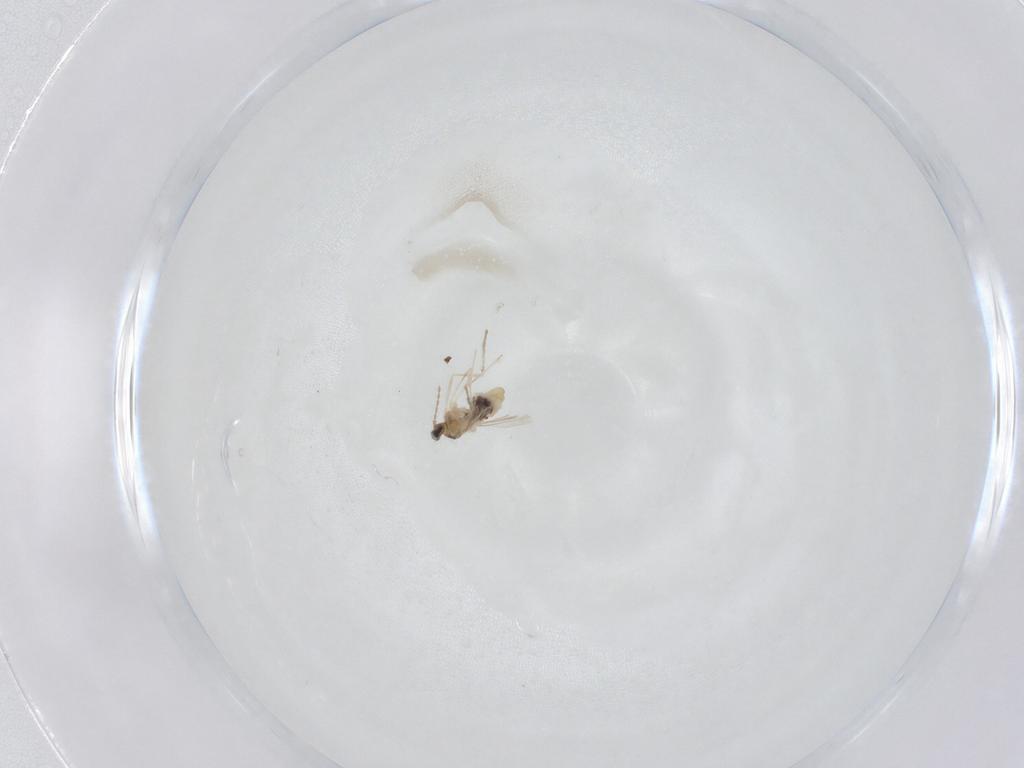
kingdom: Animalia
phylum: Arthropoda
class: Insecta
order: Diptera
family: Cecidomyiidae
